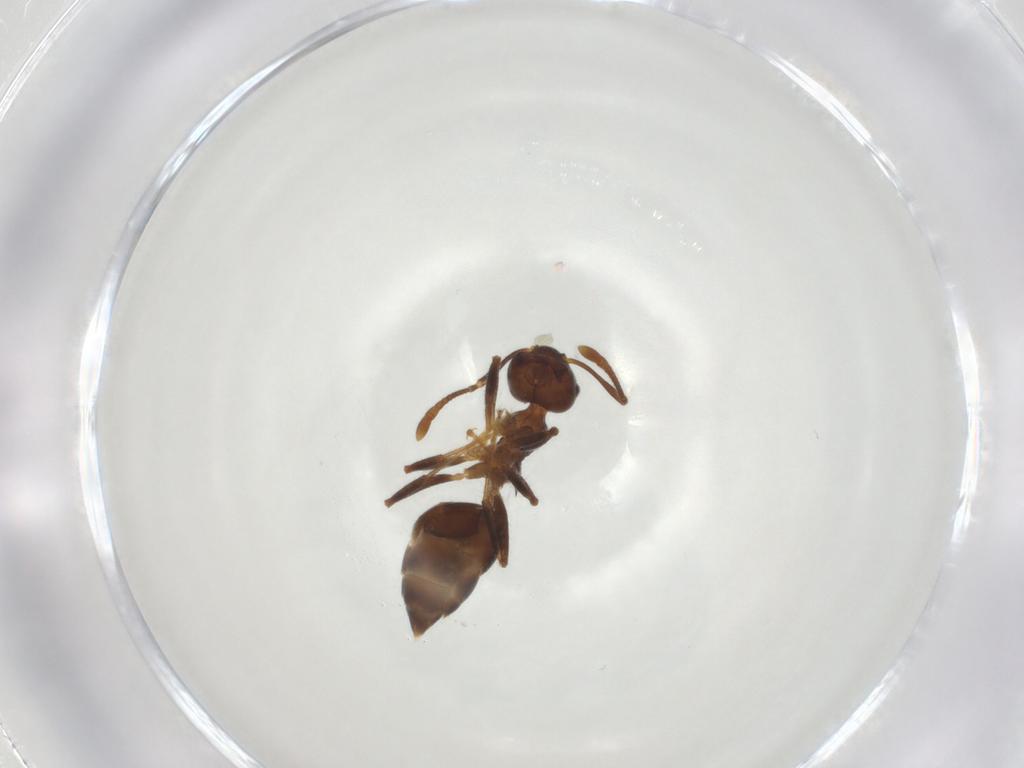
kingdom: Animalia
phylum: Arthropoda
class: Insecta
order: Hymenoptera
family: Formicidae
